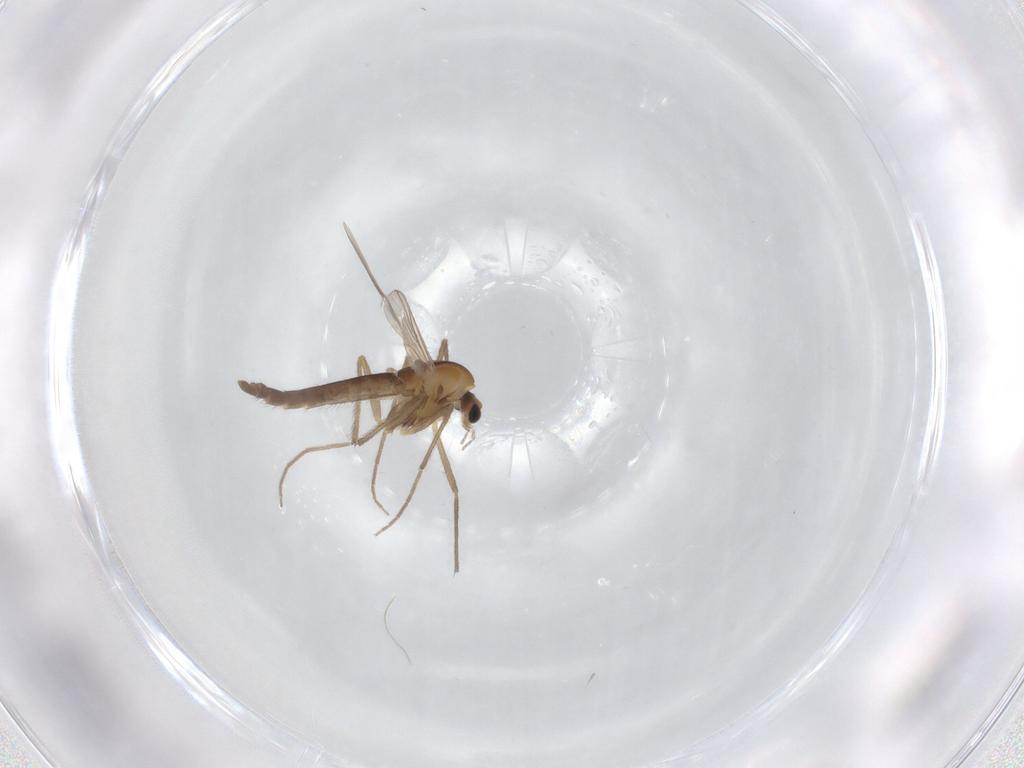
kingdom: Animalia
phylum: Arthropoda
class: Insecta
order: Diptera
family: Chironomidae
